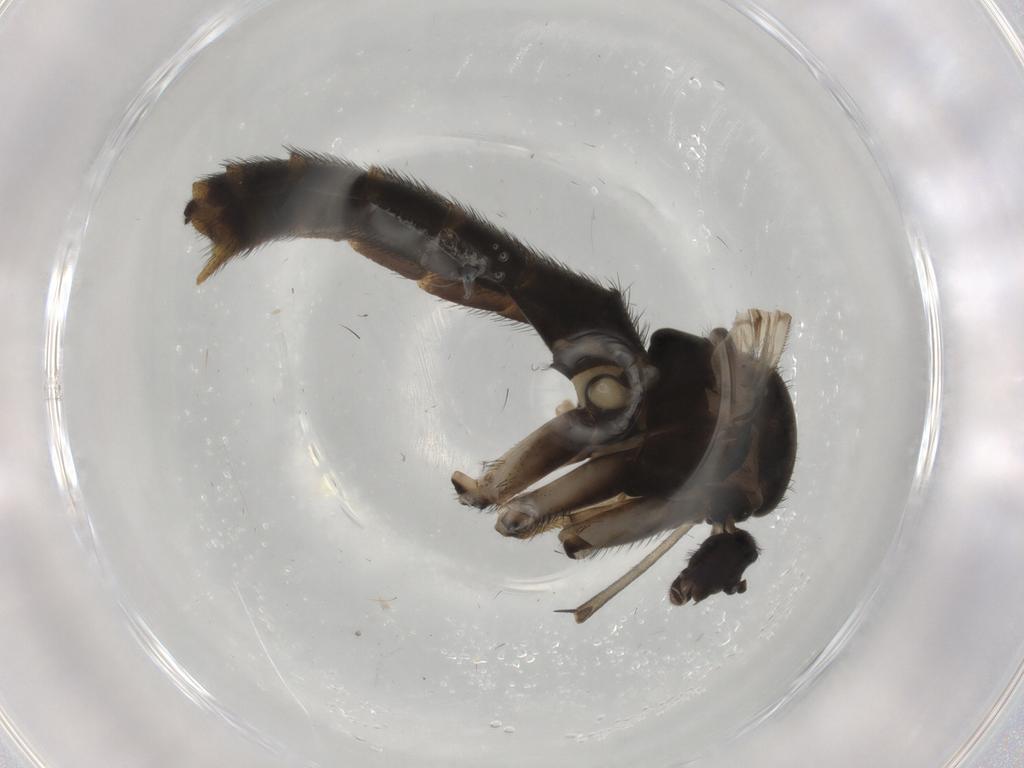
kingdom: Animalia
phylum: Arthropoda
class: Insecta
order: Diptera
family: Keroplatidae
